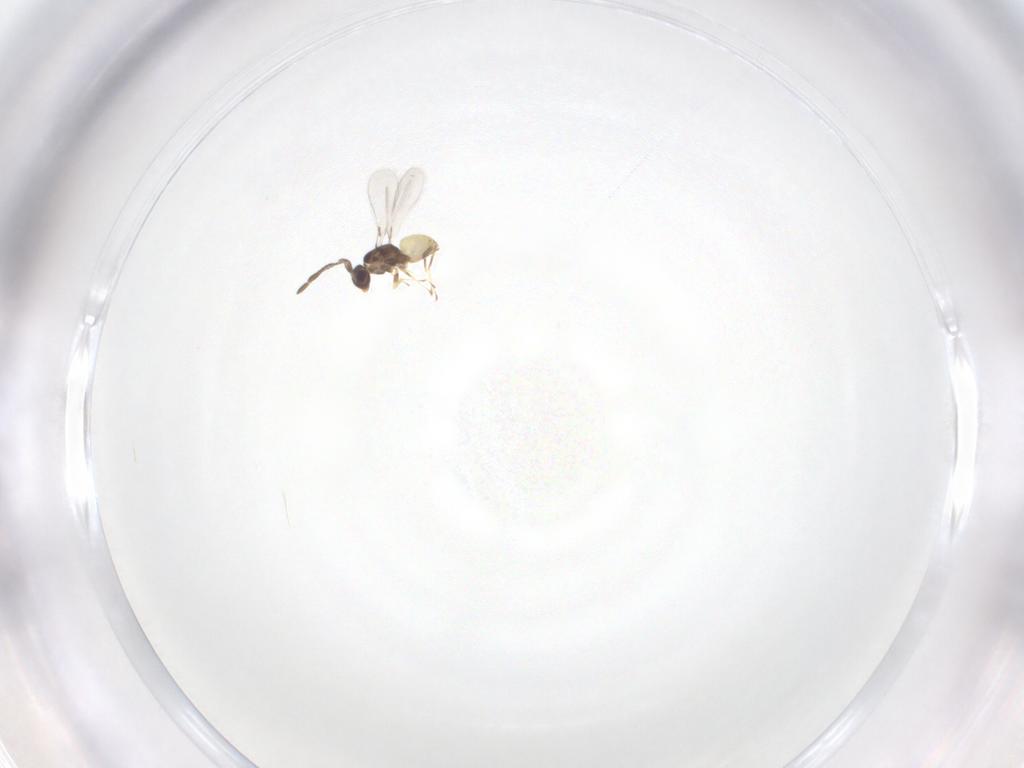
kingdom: Animalia
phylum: Arthropoda
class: Insecta
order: Hymenoptera
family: Mymaridae
